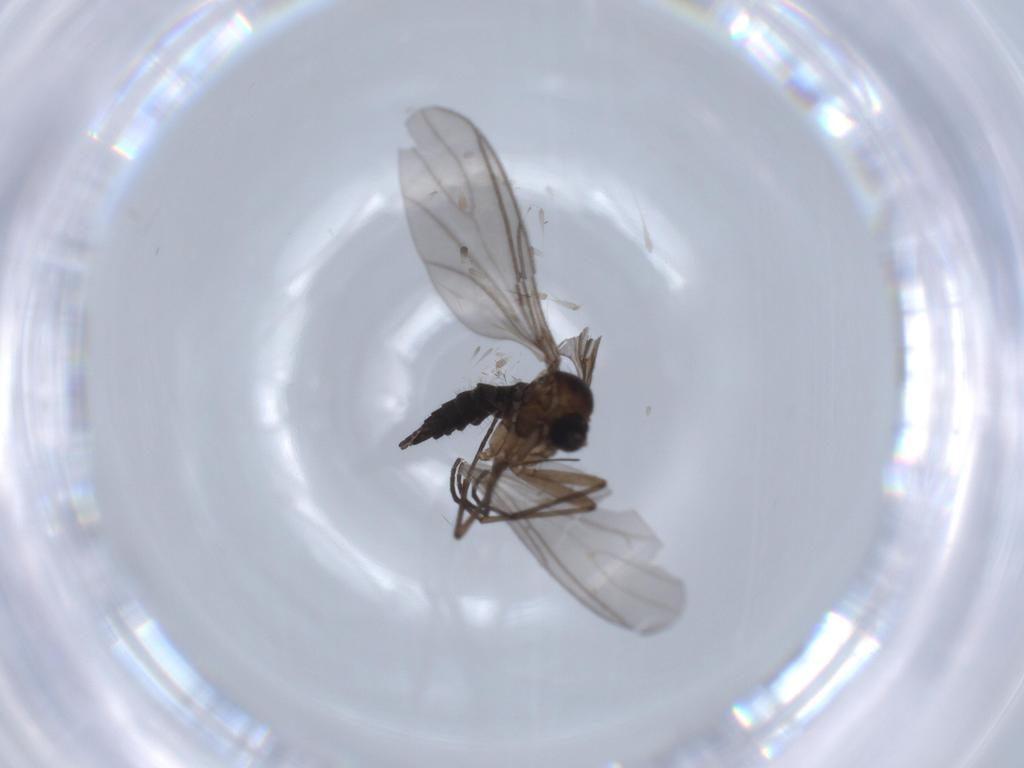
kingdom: Animalia
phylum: Arthropoda
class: Insecta
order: Diptera
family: Sciaridae
